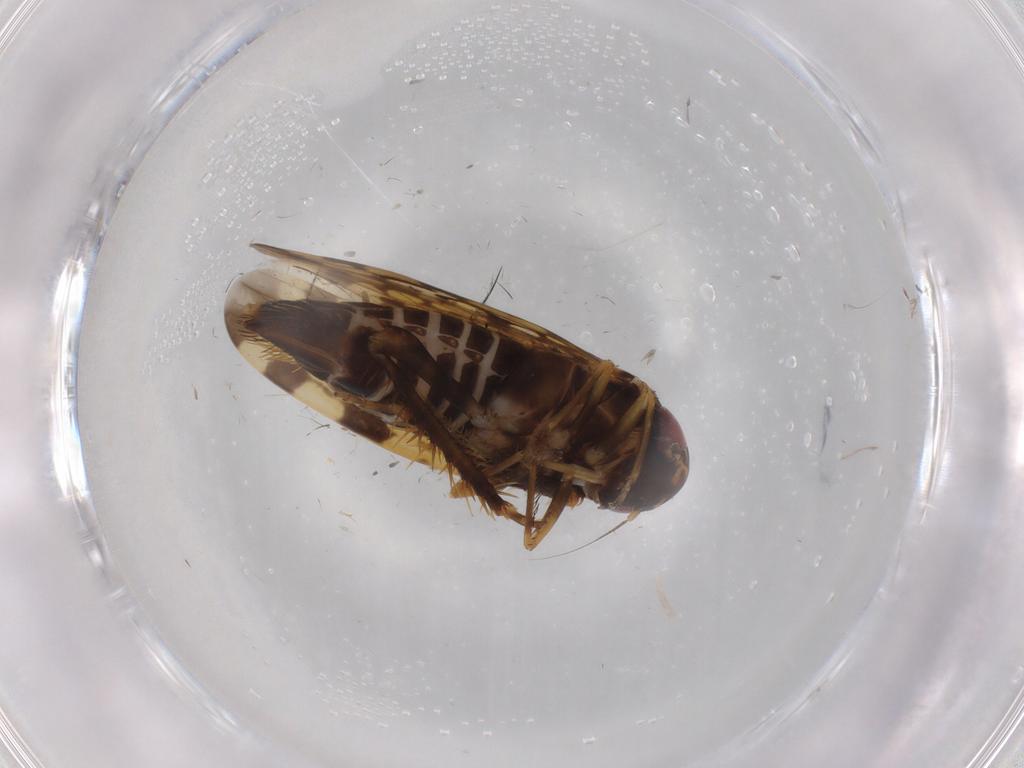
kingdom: Animalia
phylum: Arthropoda
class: Insecta
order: Hemiptera
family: Cicadellidae
